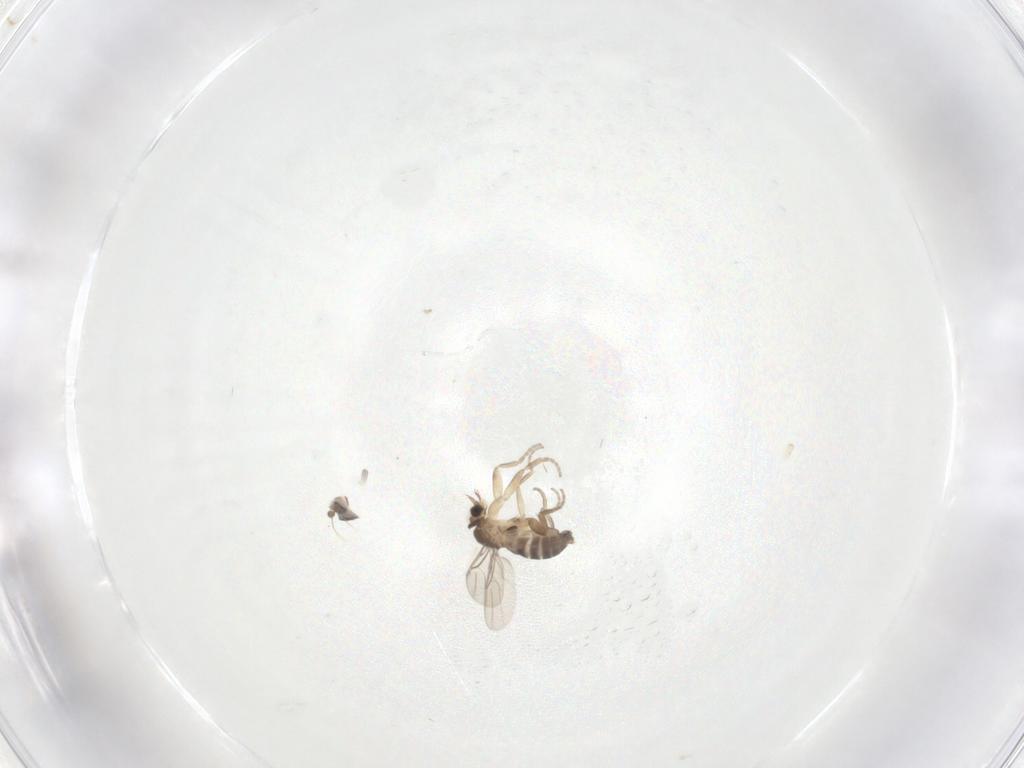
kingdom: Animalia
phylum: Arthropoda
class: Insecta
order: Diptera
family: Phoridae
